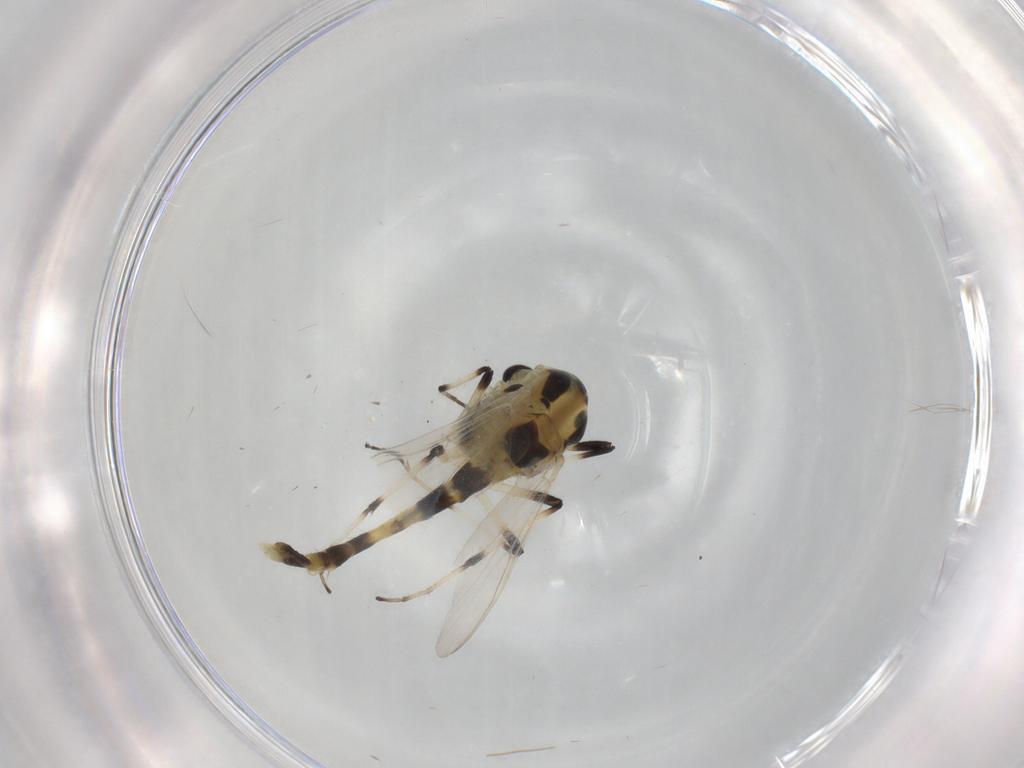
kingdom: Animalia
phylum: Arthropoda
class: Insecta
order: Diptera
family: Chironomidae
